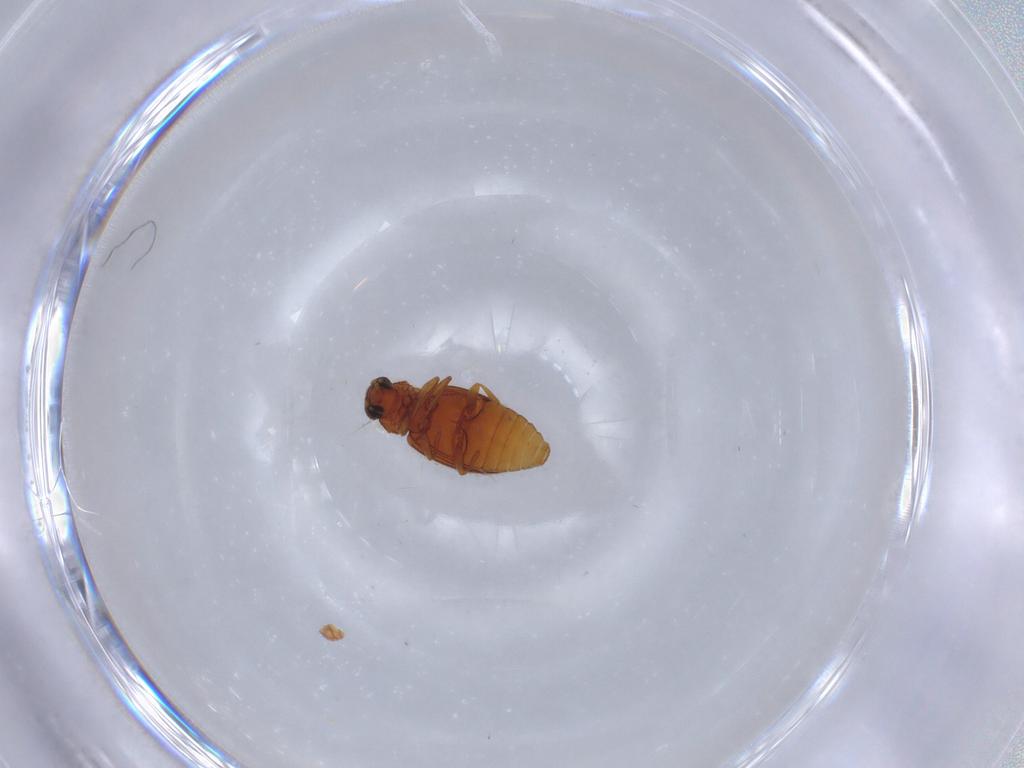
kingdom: Animalia
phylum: Arthropoda
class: Insecta
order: Coleoptera
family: Latridiidae
